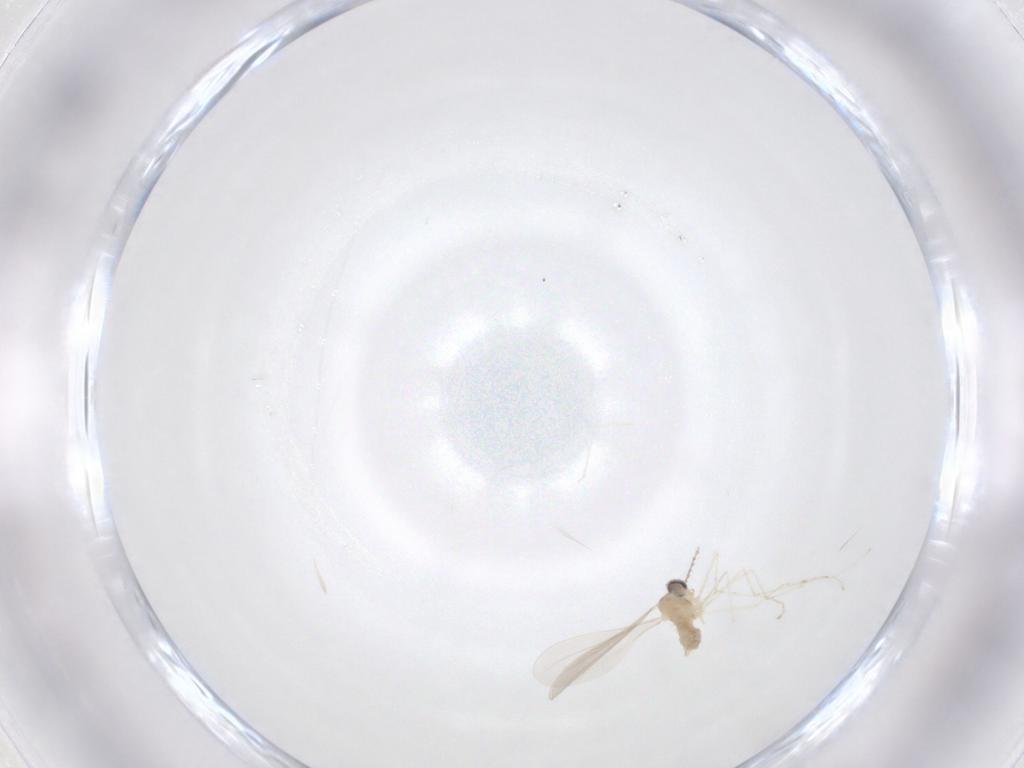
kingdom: Animalia
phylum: Arthropoda
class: Insecta
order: Diptera
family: Cecidomyiidae
